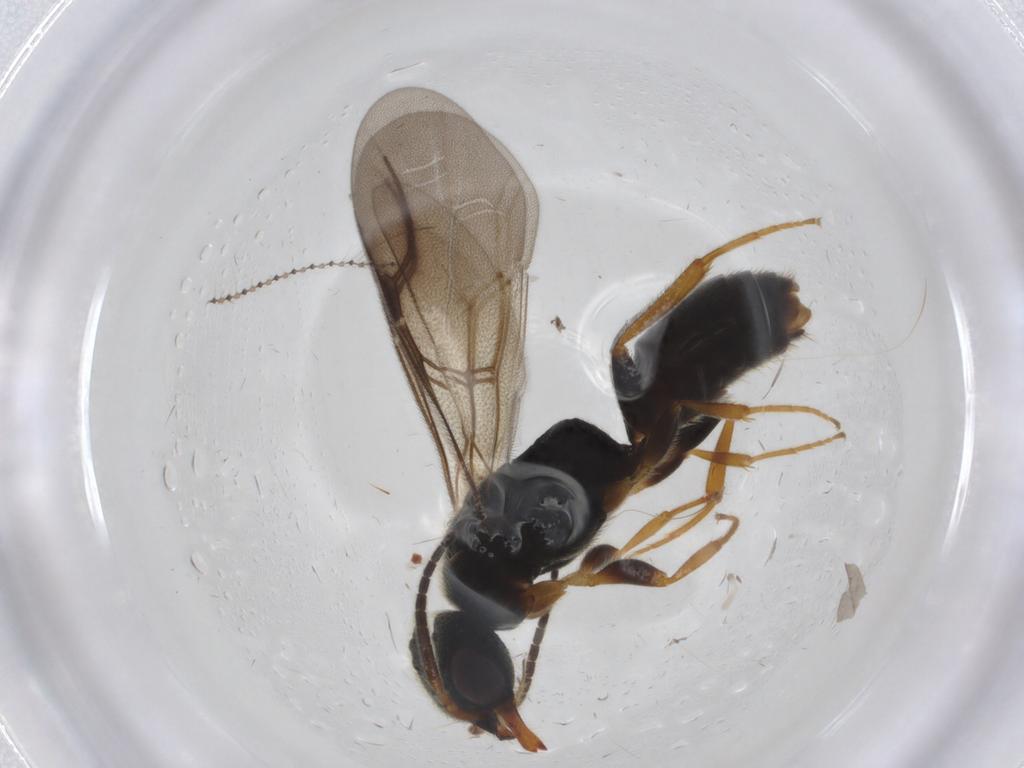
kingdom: Animalia
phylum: Arthropoda
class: Insecta
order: Hymenoptera
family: Bethylidae
